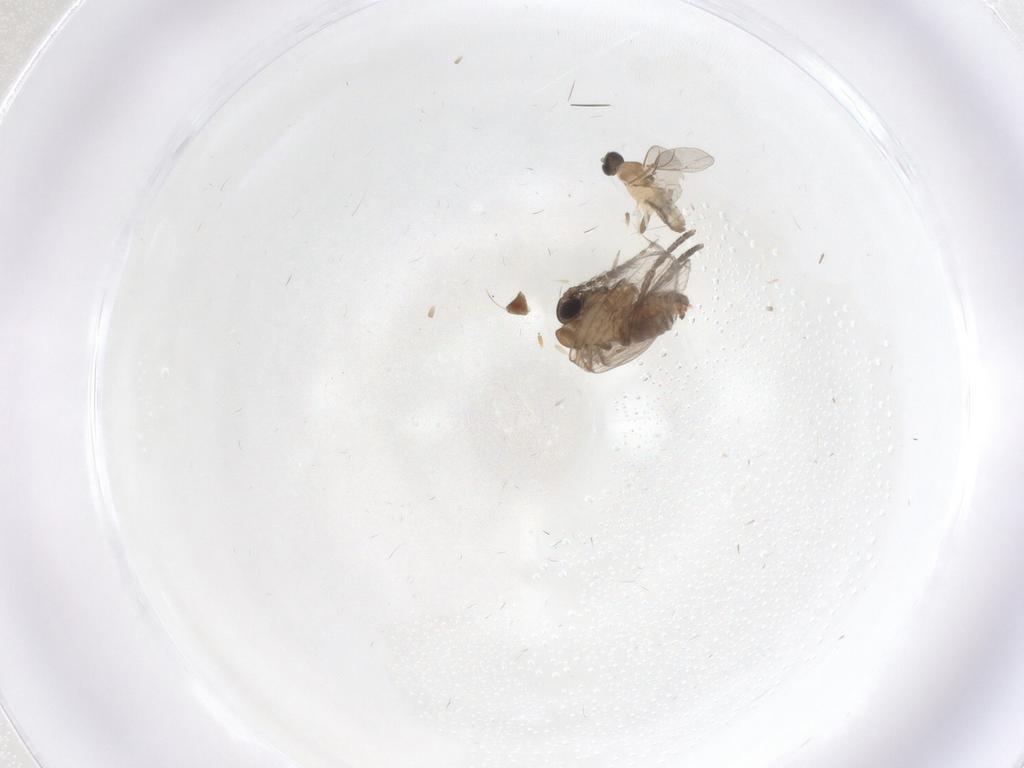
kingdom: Animalia
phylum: Arthropoda
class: Insecta
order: Diptera
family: Cecidomyiidae
